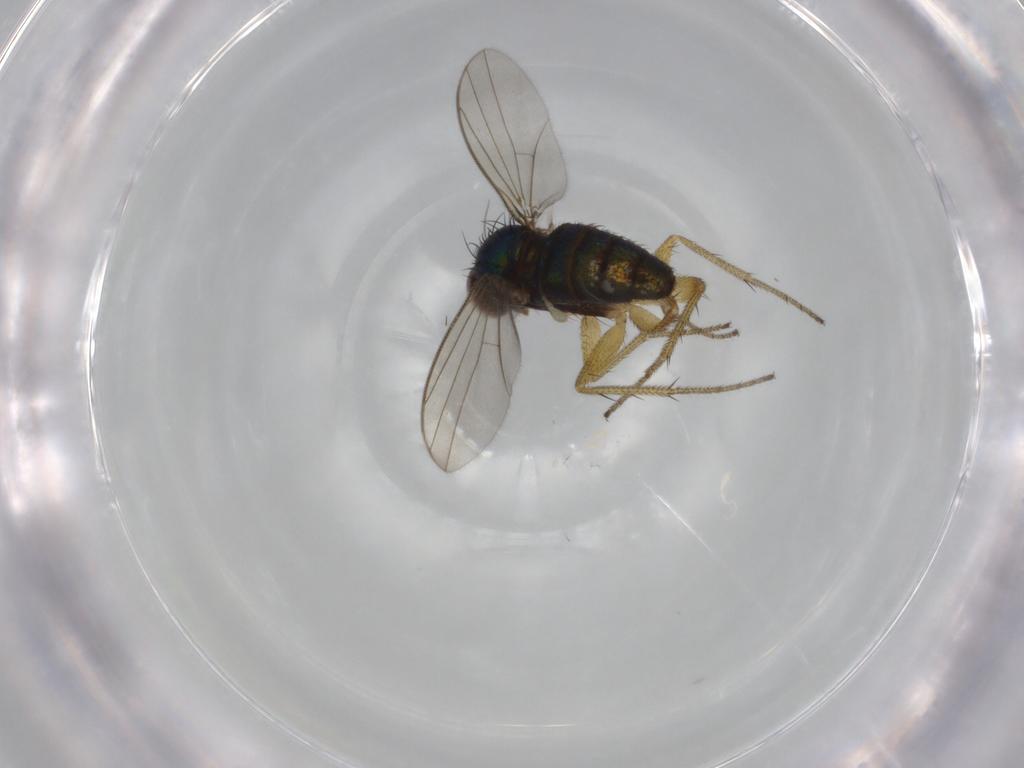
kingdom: Animalia
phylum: Arthropoda
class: Insecta
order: Diptera
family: Dolichopodidae
